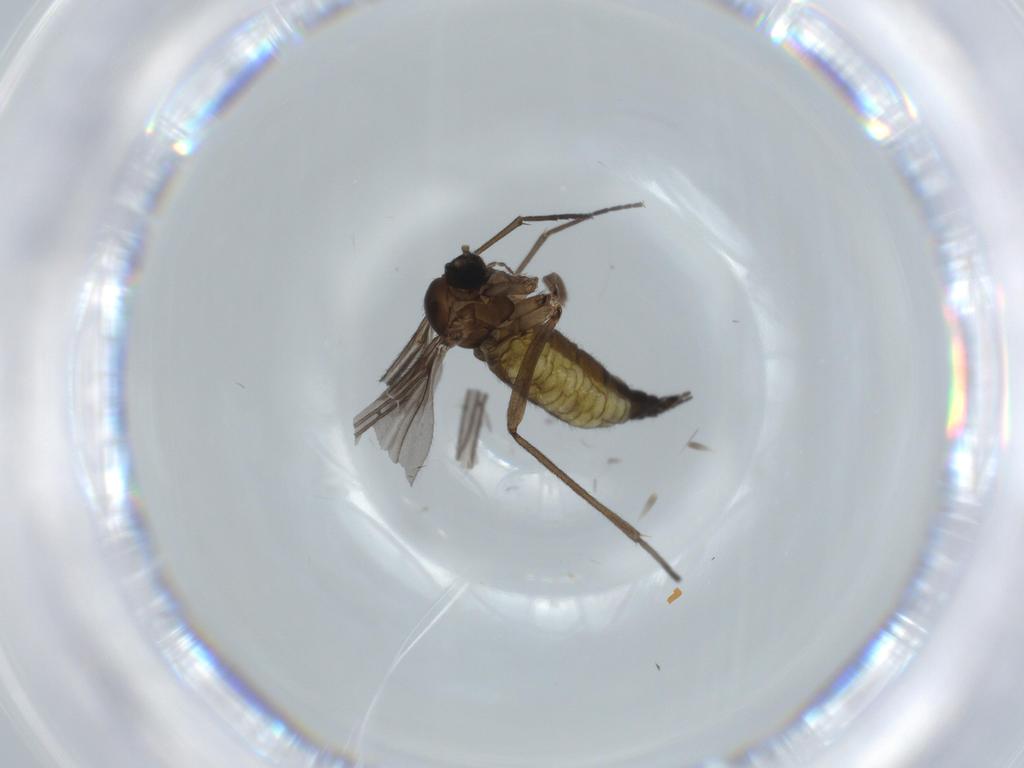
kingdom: Animalia
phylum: Arthropoda
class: Insecta
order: Diptera
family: Sciaridae
